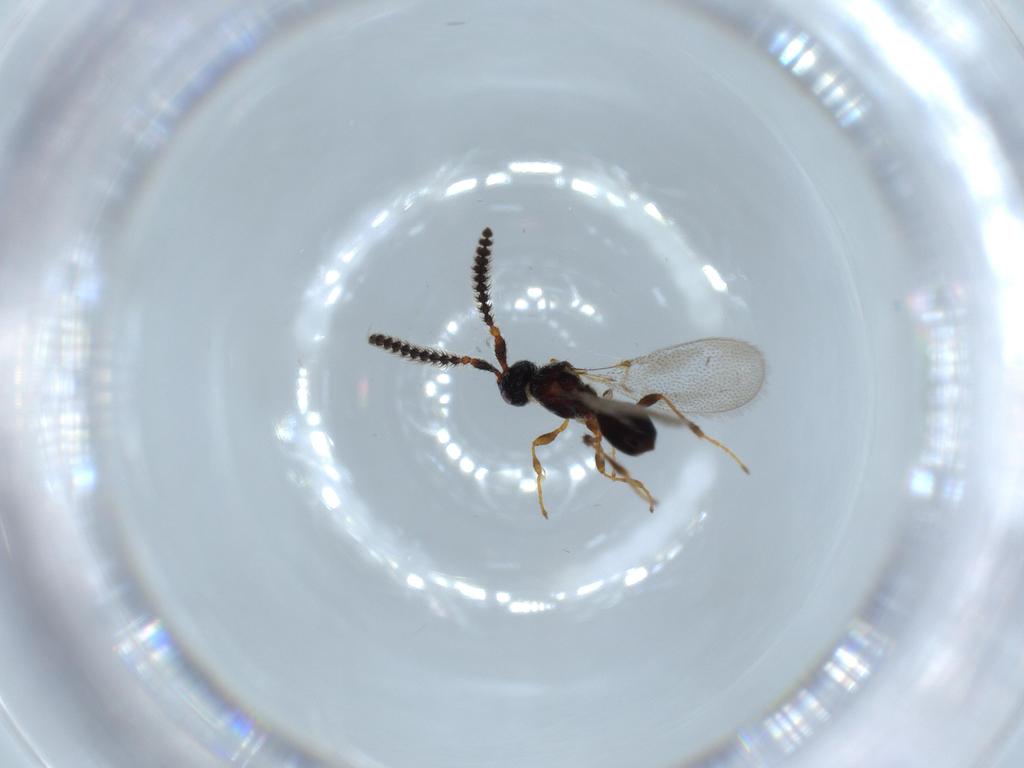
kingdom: Animalia
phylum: Arthropoda
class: Insecta
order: Hymenoptera
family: Diapriidae
